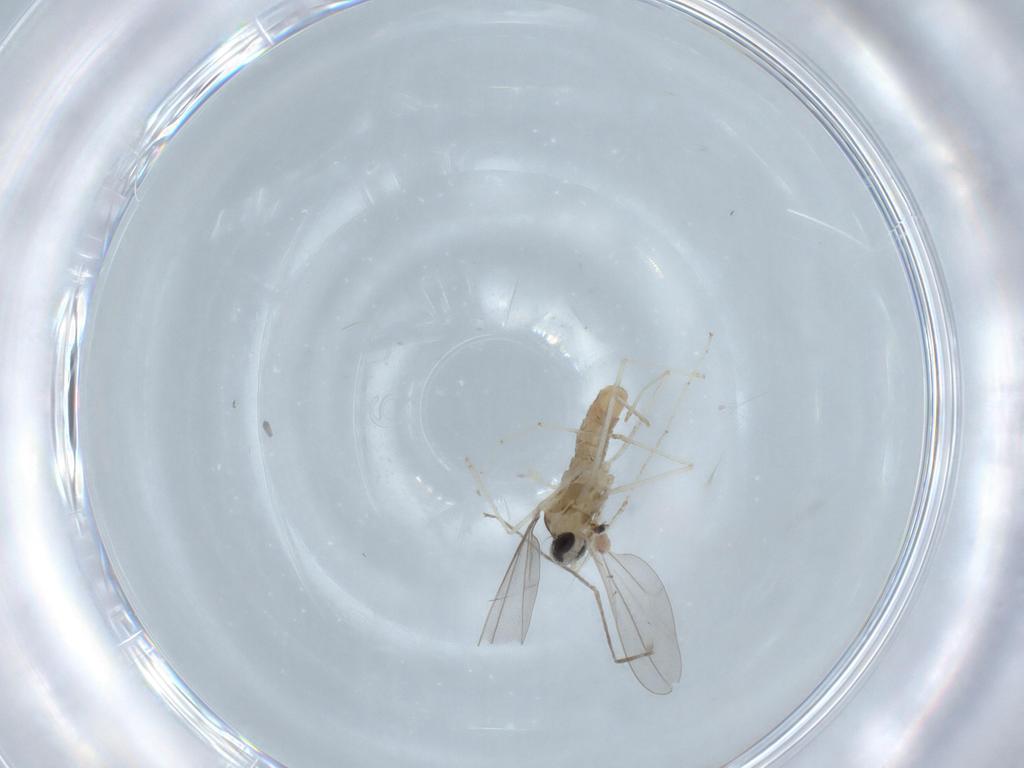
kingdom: Animalia
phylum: Arthropoda
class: Insecta
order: Diptera
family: Cecidomyiidae
